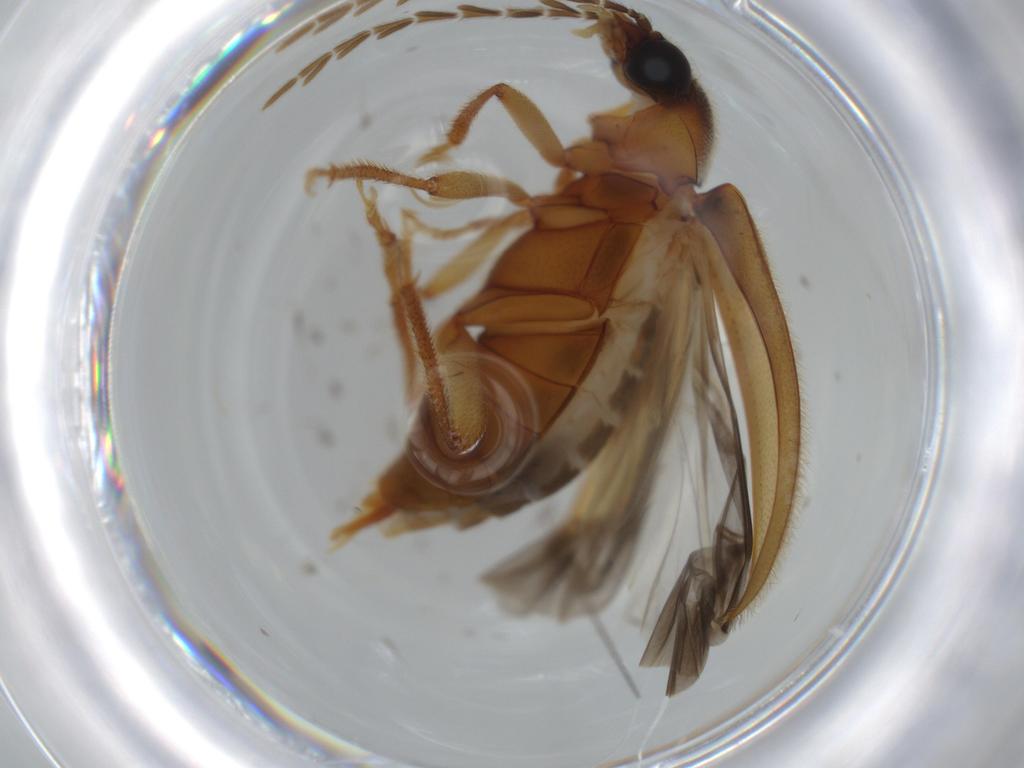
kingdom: Animalia
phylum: Arthropoda
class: Insecta
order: Coleoptera
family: Ptilodactylidae
